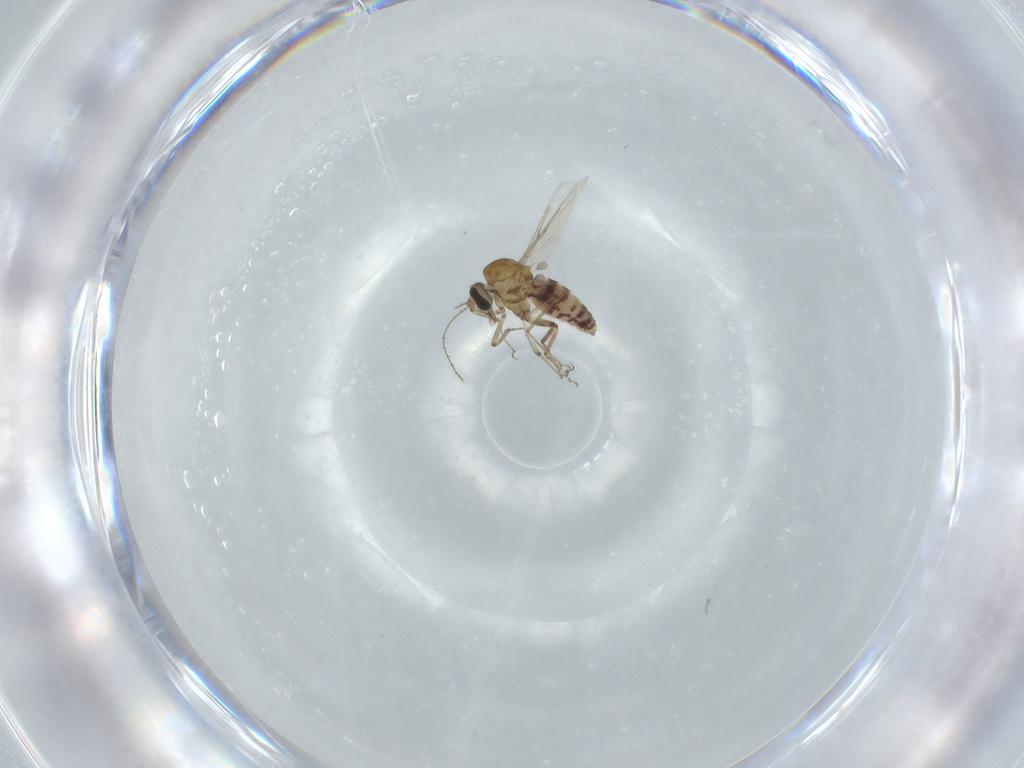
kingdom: Animalia
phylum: Arthropoda
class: Insecta
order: Diptera
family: Ceratopogonidae
